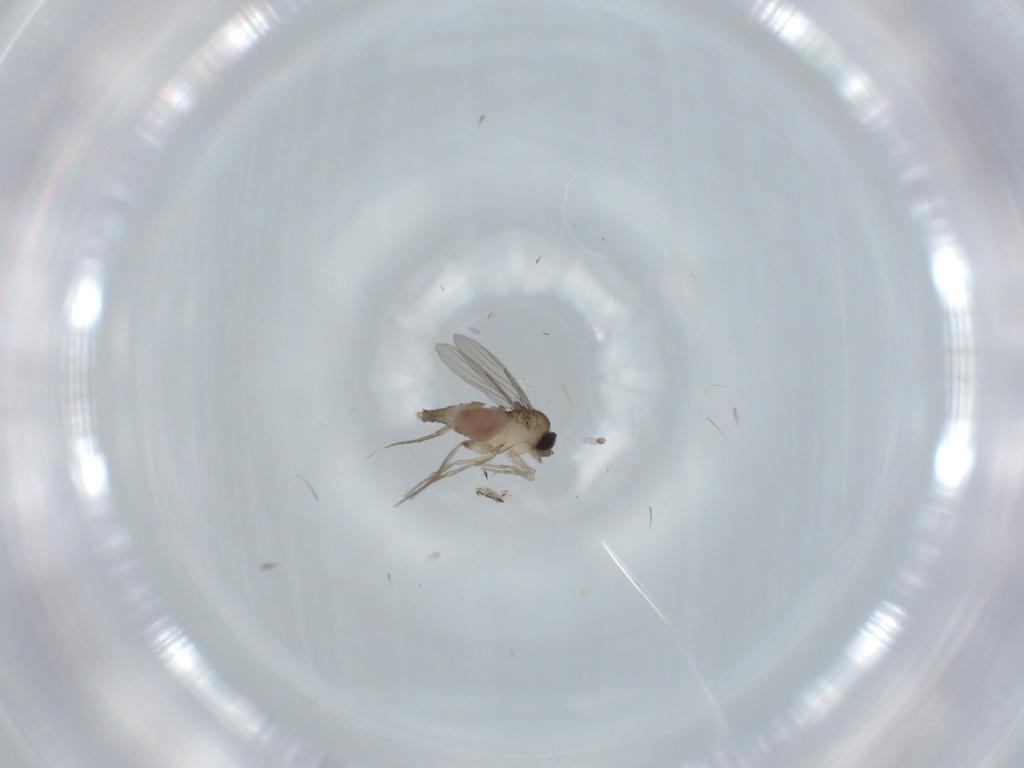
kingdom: Animalia
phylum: Arthropoda
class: Insecta
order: Diptera
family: Phoridae
